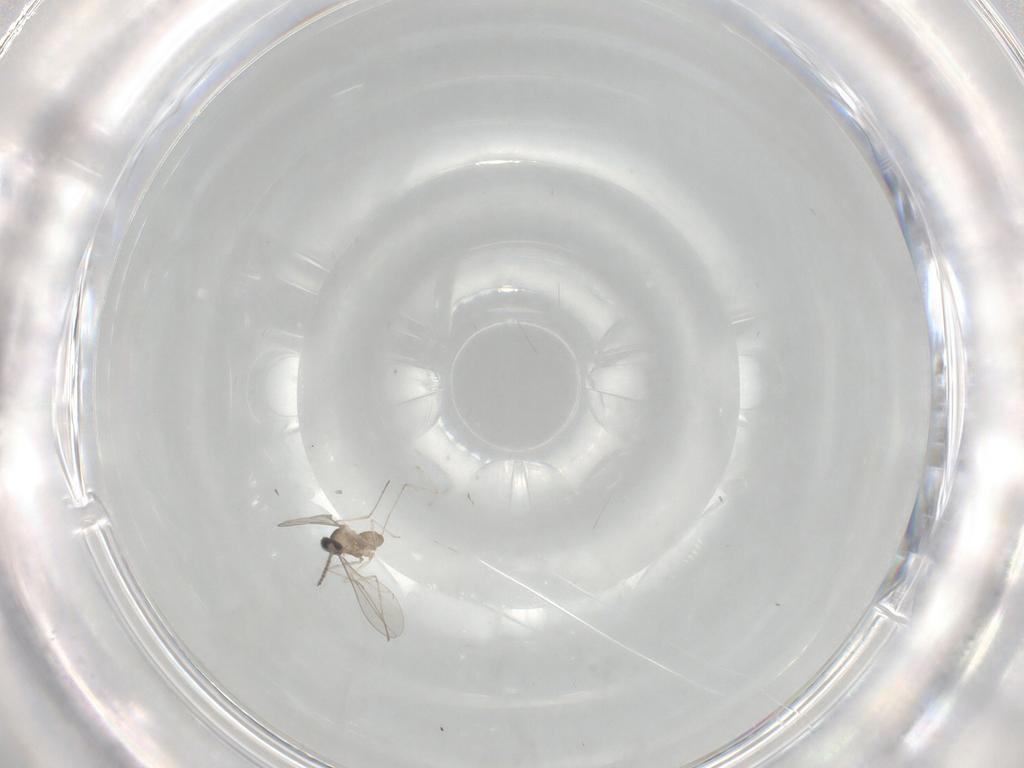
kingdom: Animalia
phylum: Arthropoda
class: Insecta
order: Diptera
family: Cecidomyiidae
